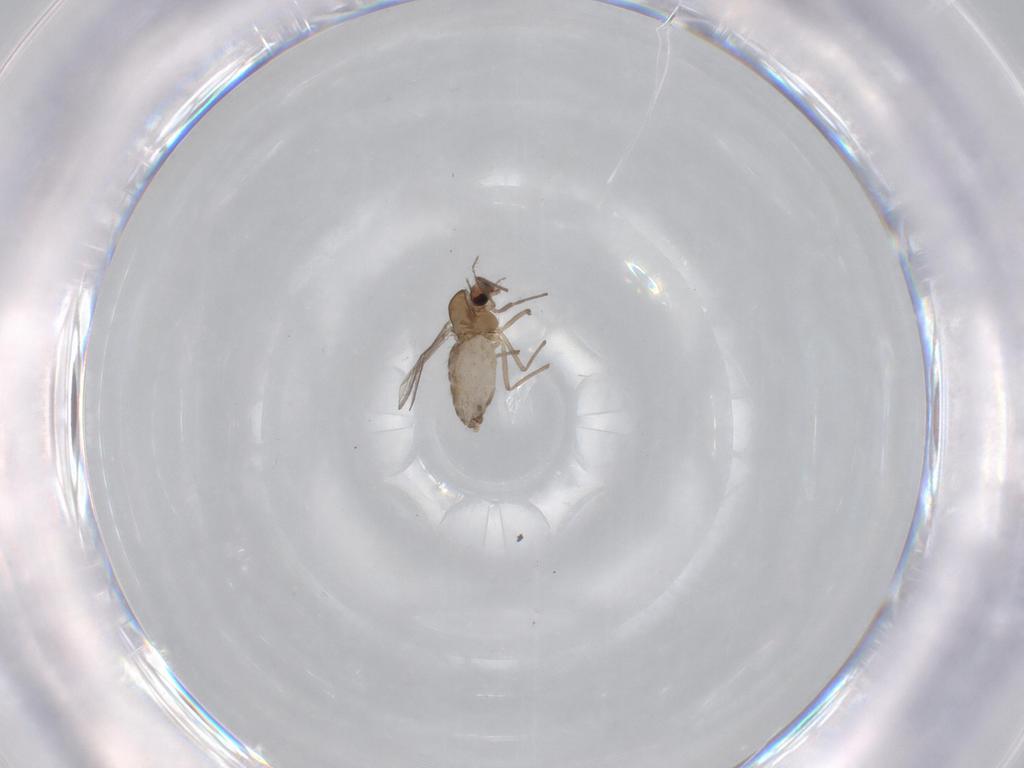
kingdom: Animalia
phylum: Arthropoda
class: Insecta
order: Diptera
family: Chironomidae
